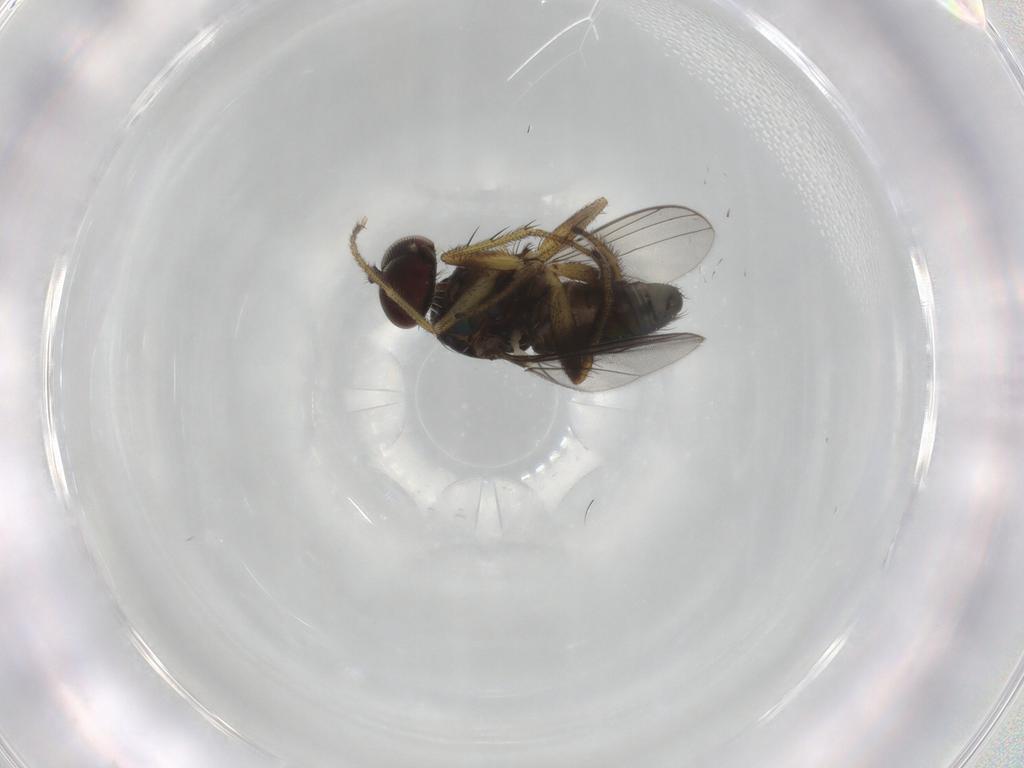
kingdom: Animalia
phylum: Arthropoda
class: Insecta
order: Diptera
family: Dolichopodidae
